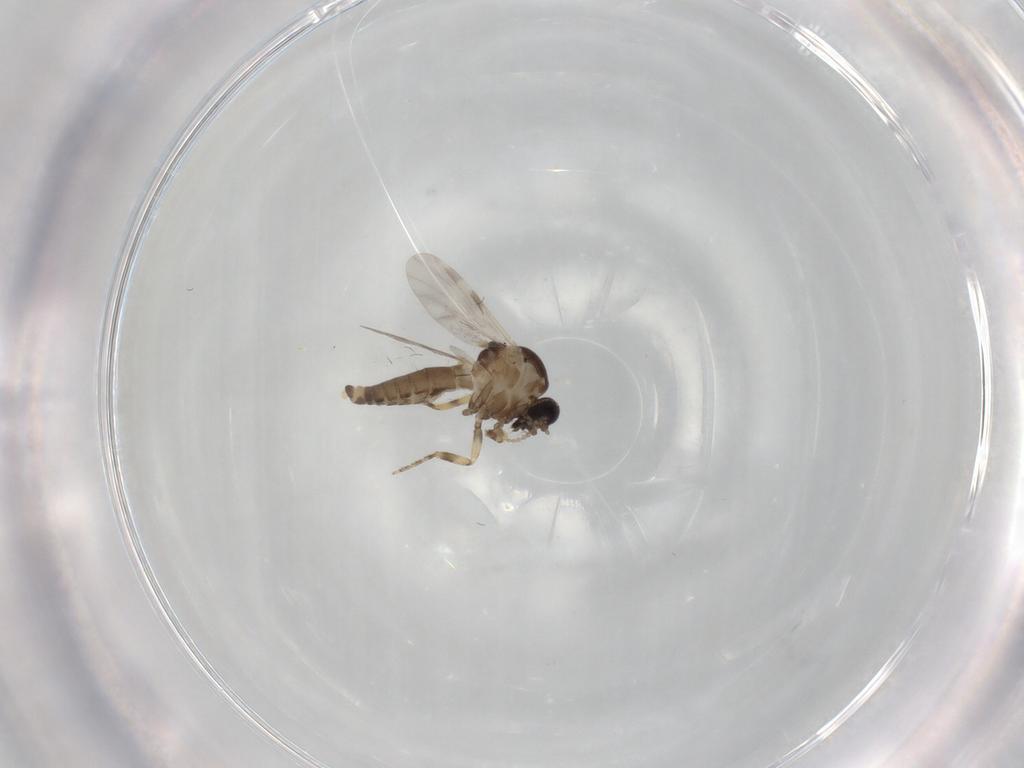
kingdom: Animalia
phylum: Arthropoda
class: Insecta
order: Diptera
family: Ceratopogonidae
